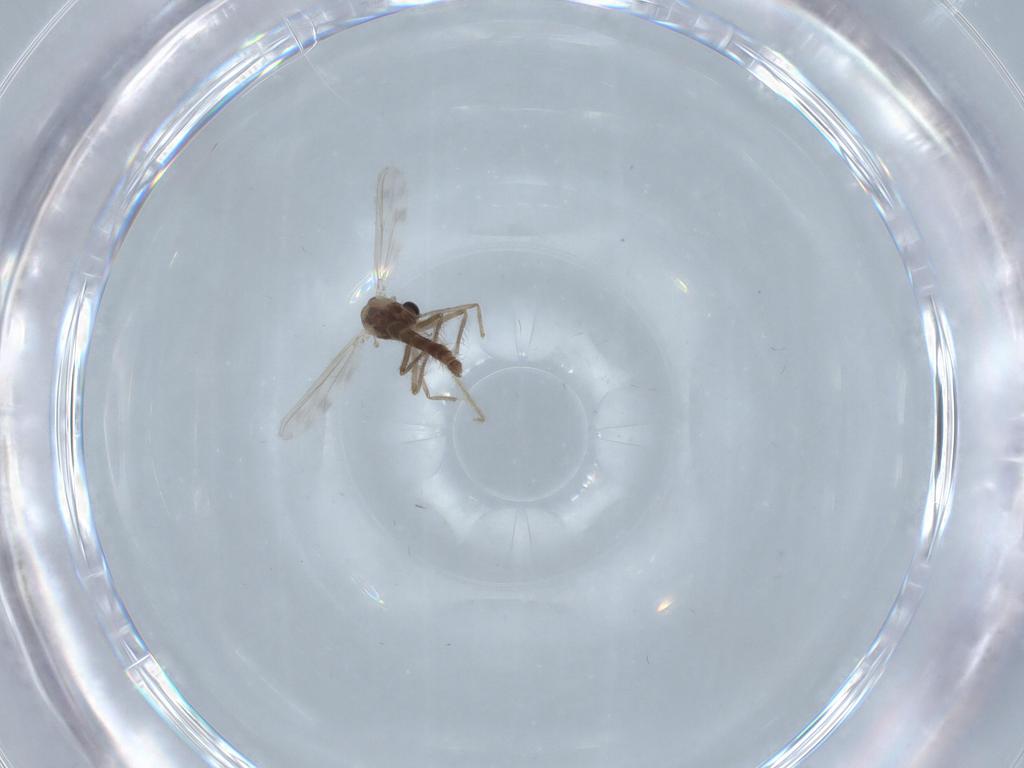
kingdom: Animalia
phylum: Arthropoda
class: Insecta
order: Diptera
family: Chironomidae
